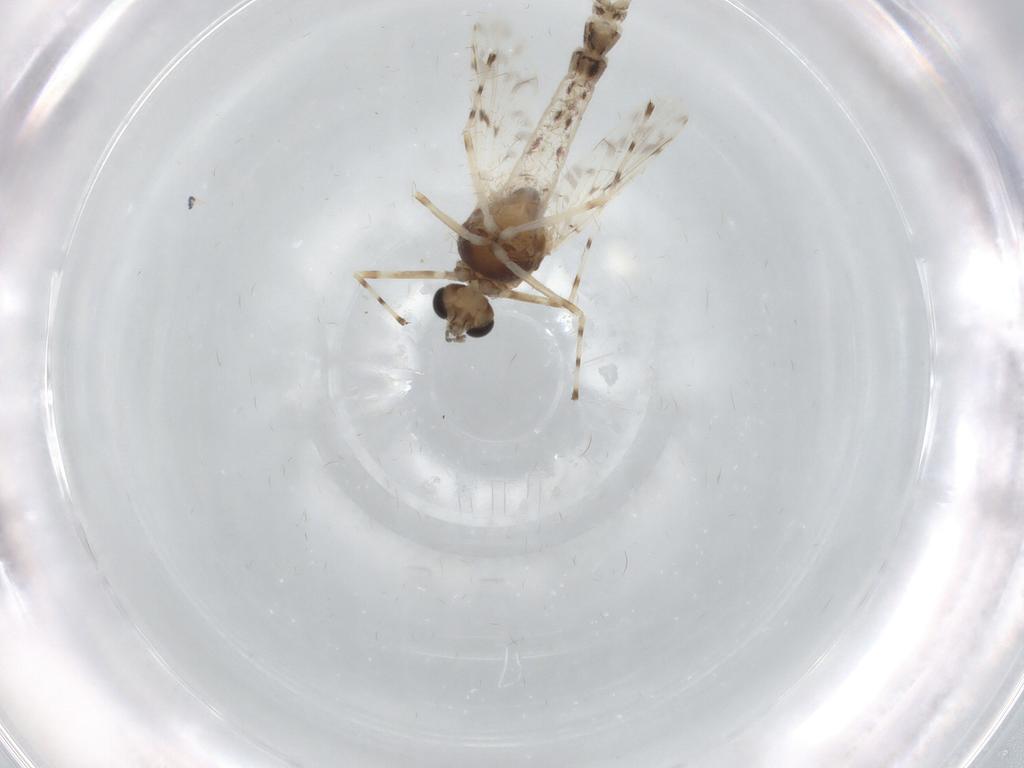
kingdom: Animalia
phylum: Arthropoda
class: Insecta
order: Diptera
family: Chironomidae
